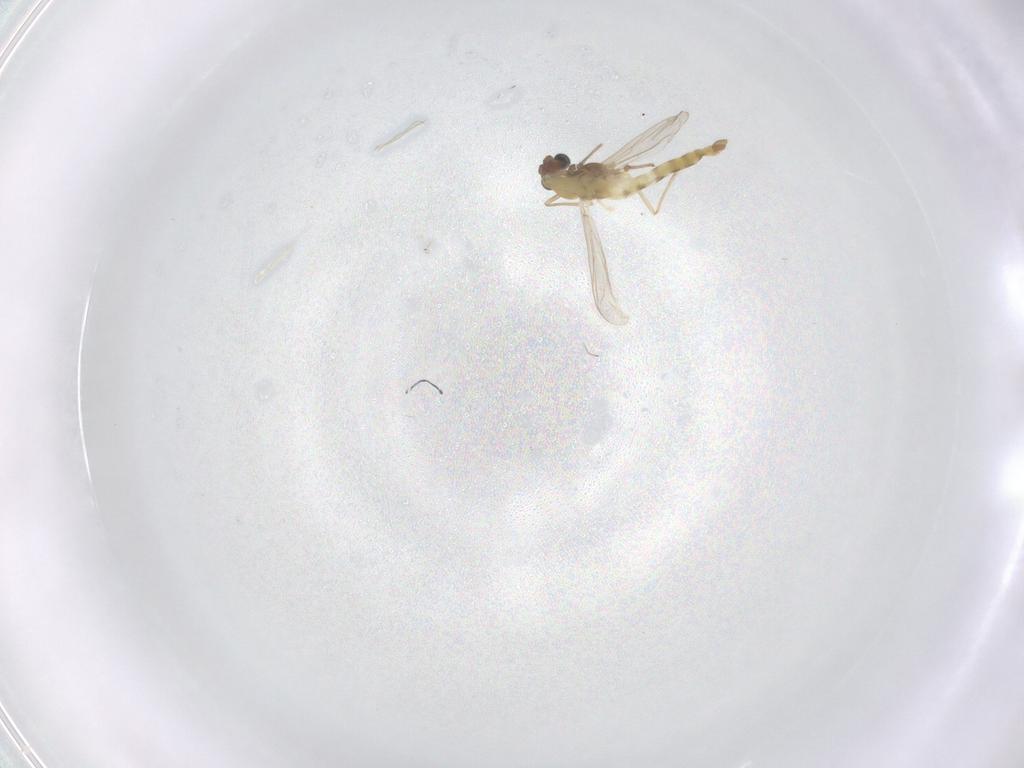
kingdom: Animalia
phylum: Arthropoda
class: Insecta
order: Diptera
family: Chironomidae
